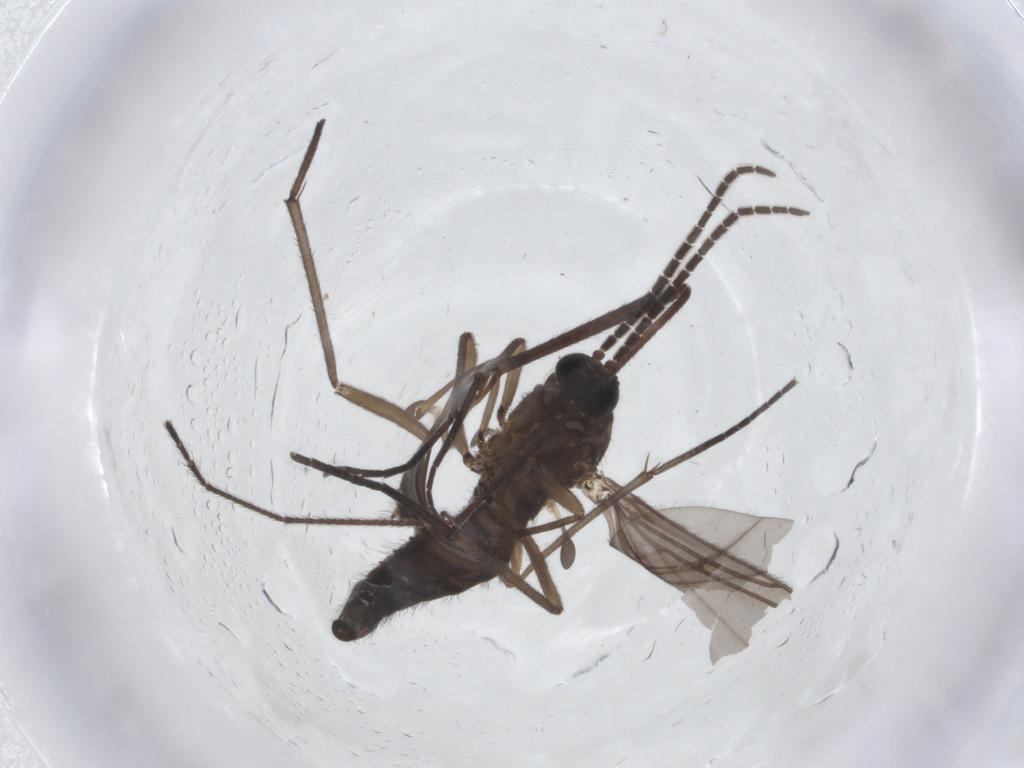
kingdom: Animalia
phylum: Arthropoda
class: Insecta
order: Diptera
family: Sciaridae
